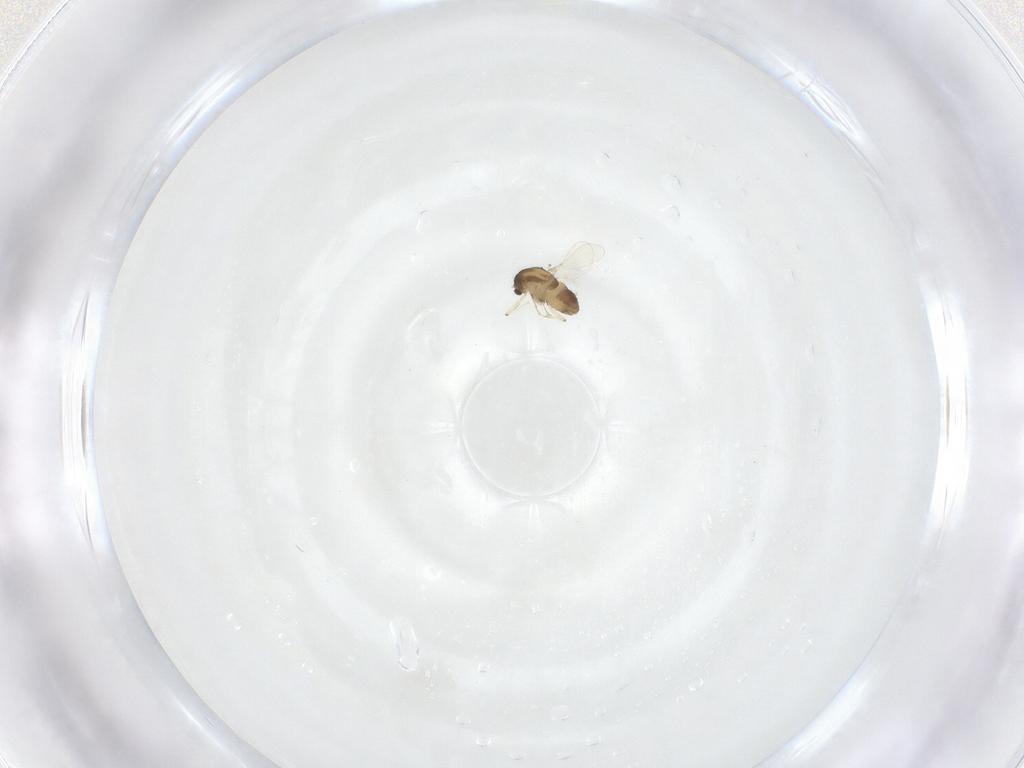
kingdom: Animalia
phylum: Arthropoda
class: Insecta
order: Diptera
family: Chironomidae
